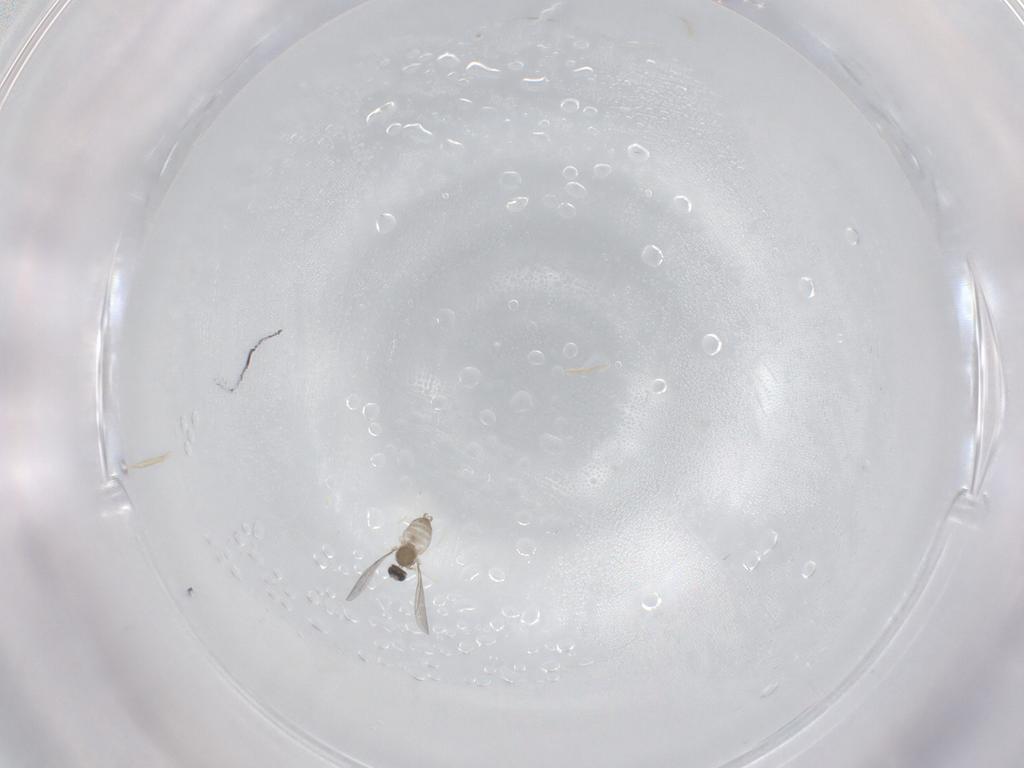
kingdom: Animalia
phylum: Arthropoda
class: Insecta
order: Diptera
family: Cecidomyiidae
